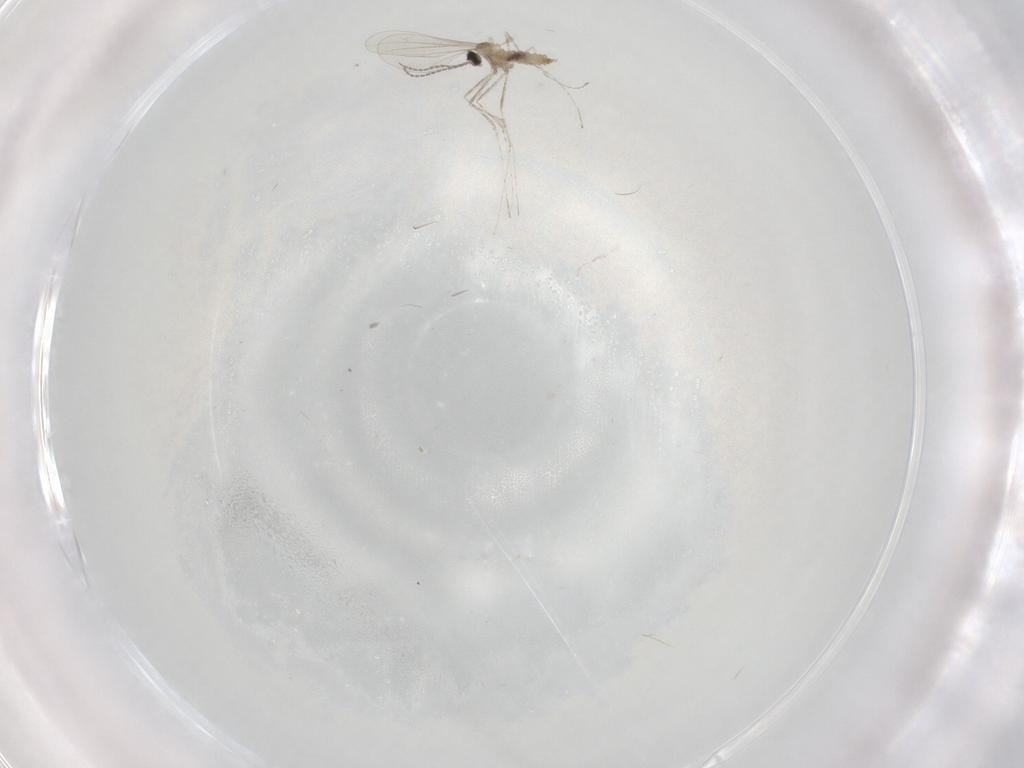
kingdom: Animalia
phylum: Arthropoda
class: Insecta
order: Diptera
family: Cecidomyiidae
